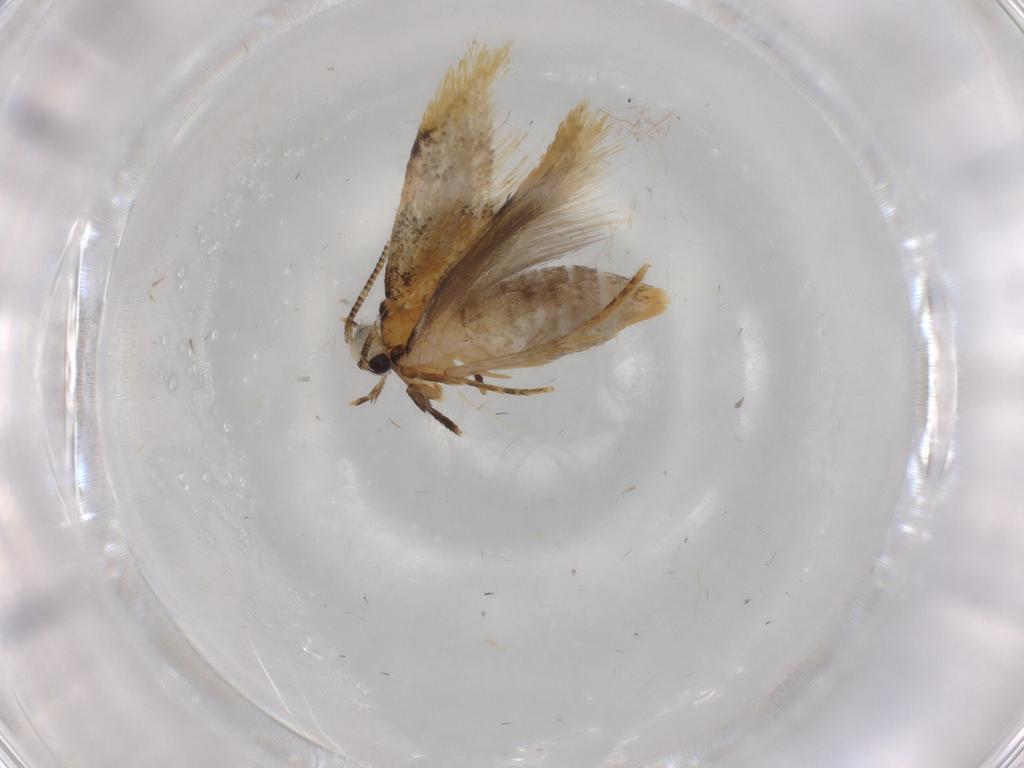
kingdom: Animalia
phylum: Arthropoda
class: Insecta
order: Lepidoptera
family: Tineidae
